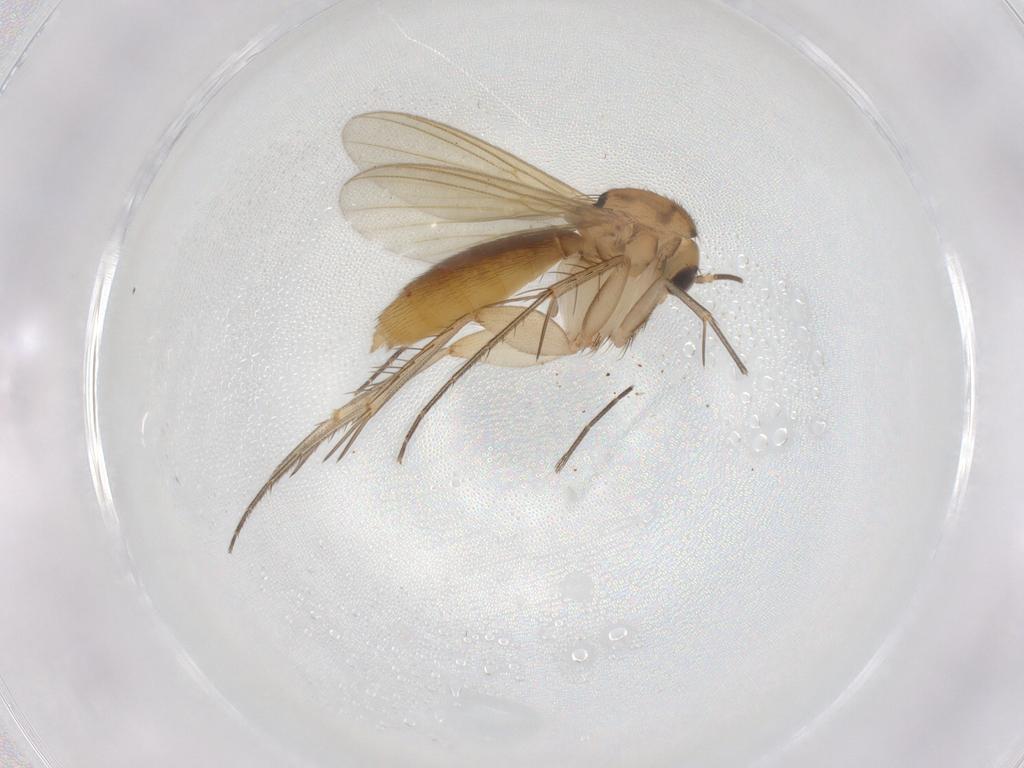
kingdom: Animalia
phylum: Arthropoda
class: Insecta
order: Diptera
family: Mycetophilidae
